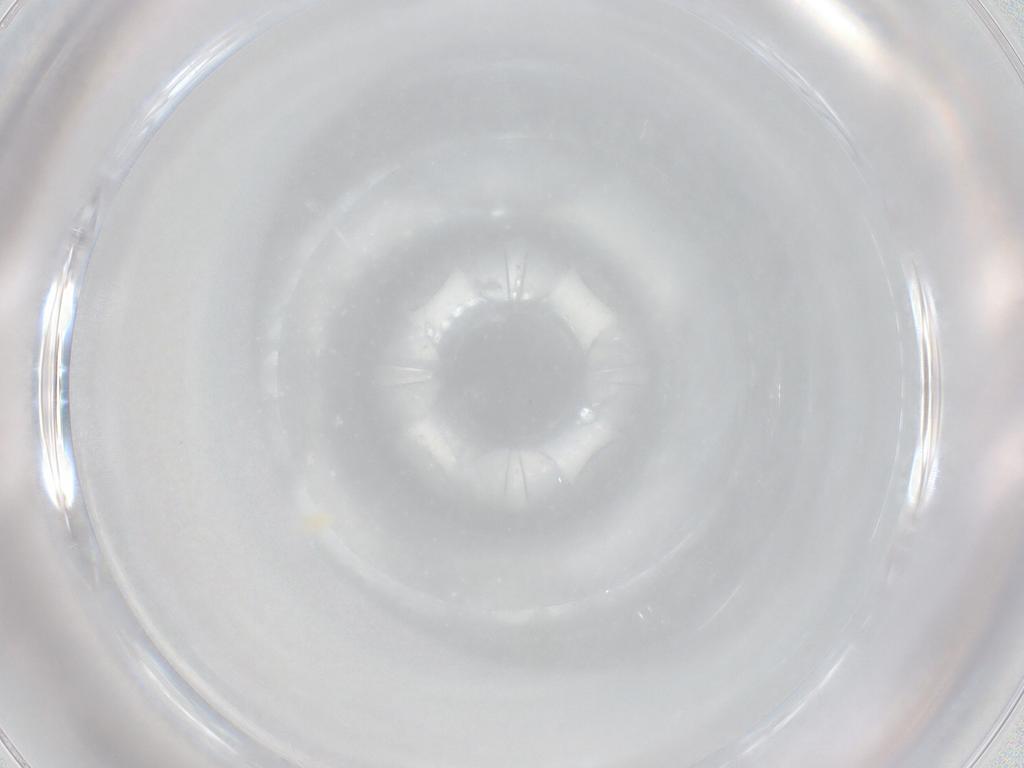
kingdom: Animalia
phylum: Arthropoda
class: Arachnida
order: Trombidiformes
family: Eupodidae
